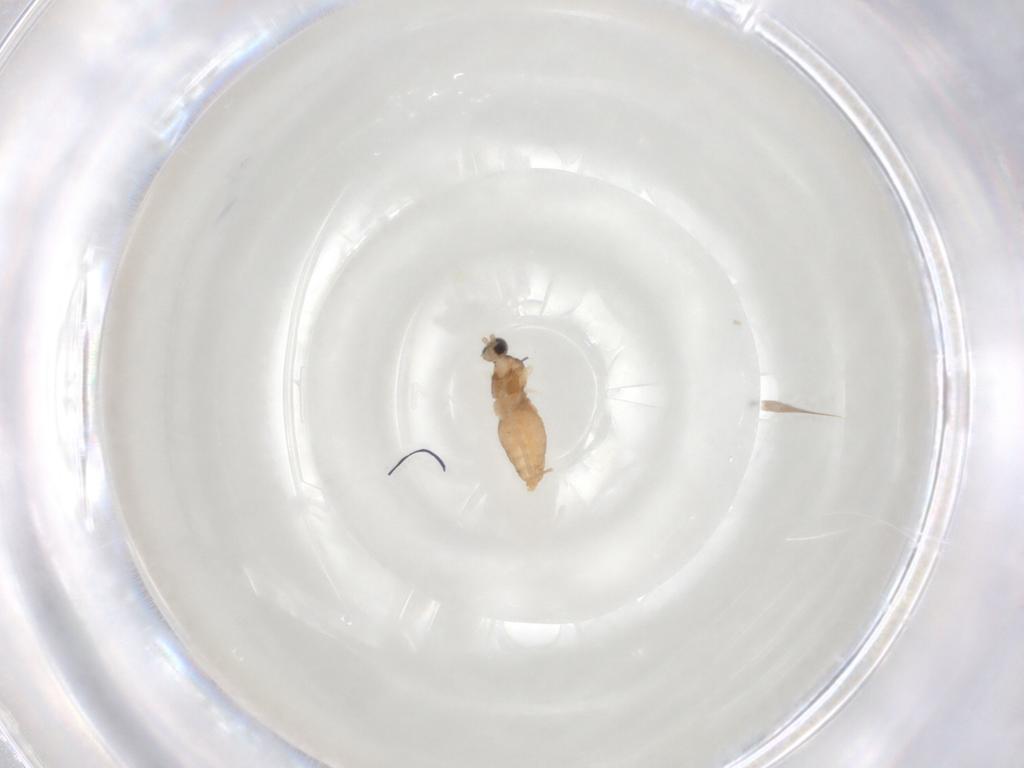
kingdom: Animalia
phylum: Arthropoda
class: Insecta
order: Diptera
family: Cecidomyiidae
